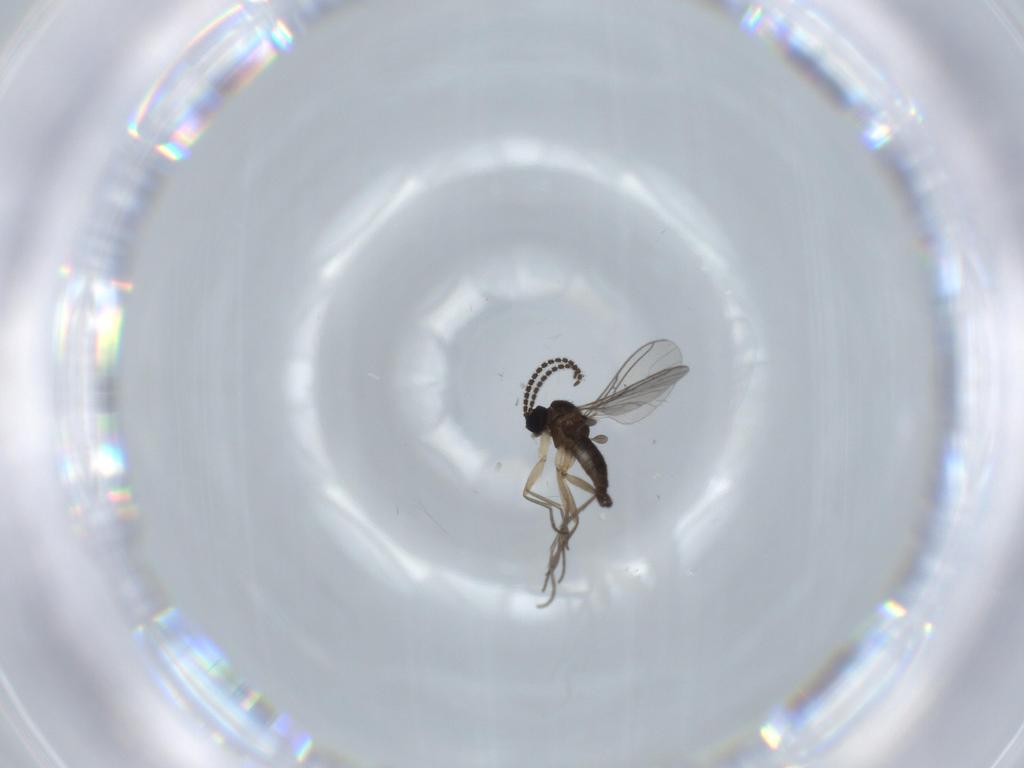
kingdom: Animalia
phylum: Arthropoda
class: Insecta
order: Diptera
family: Sciaridae
